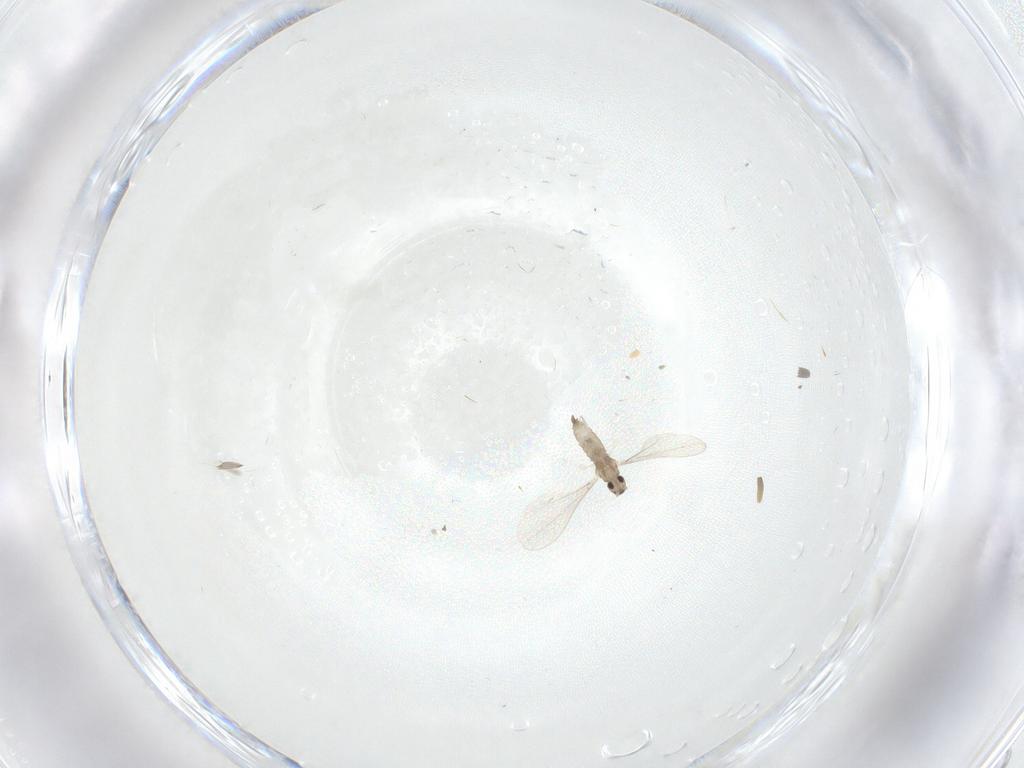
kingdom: Animalia
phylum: Arthropoda
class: Insecta
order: Diptera
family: Cecidomyiidae
